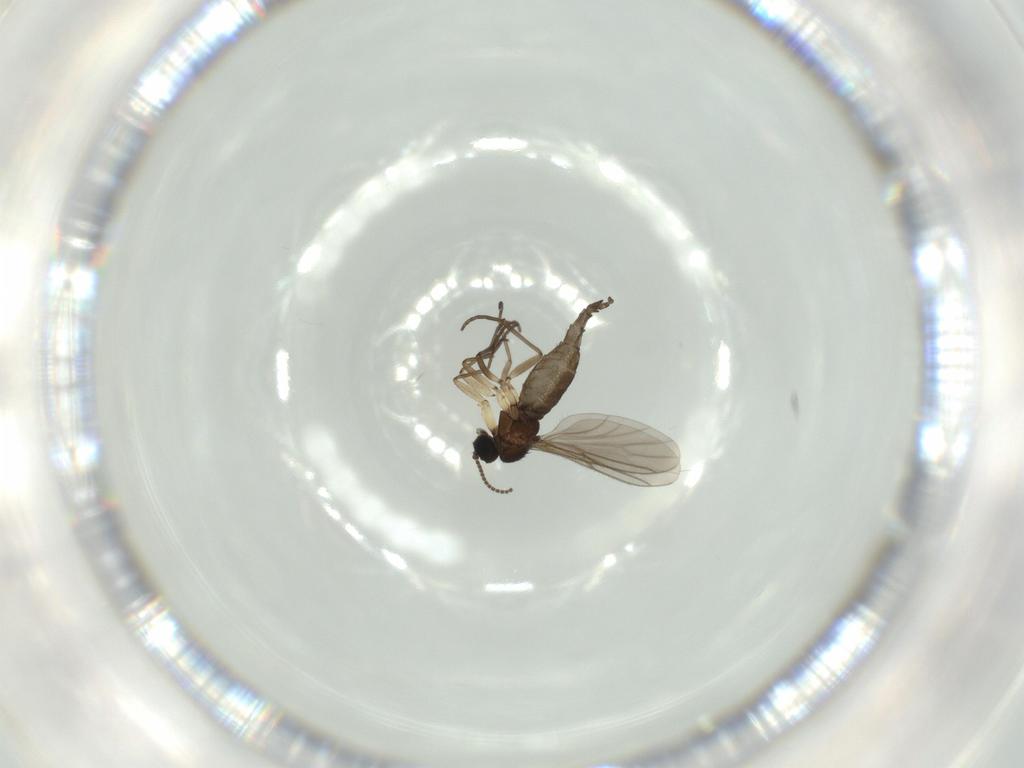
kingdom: Animalia
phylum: Arthropoda
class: Insecta
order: Diptera
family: Sciaridae
